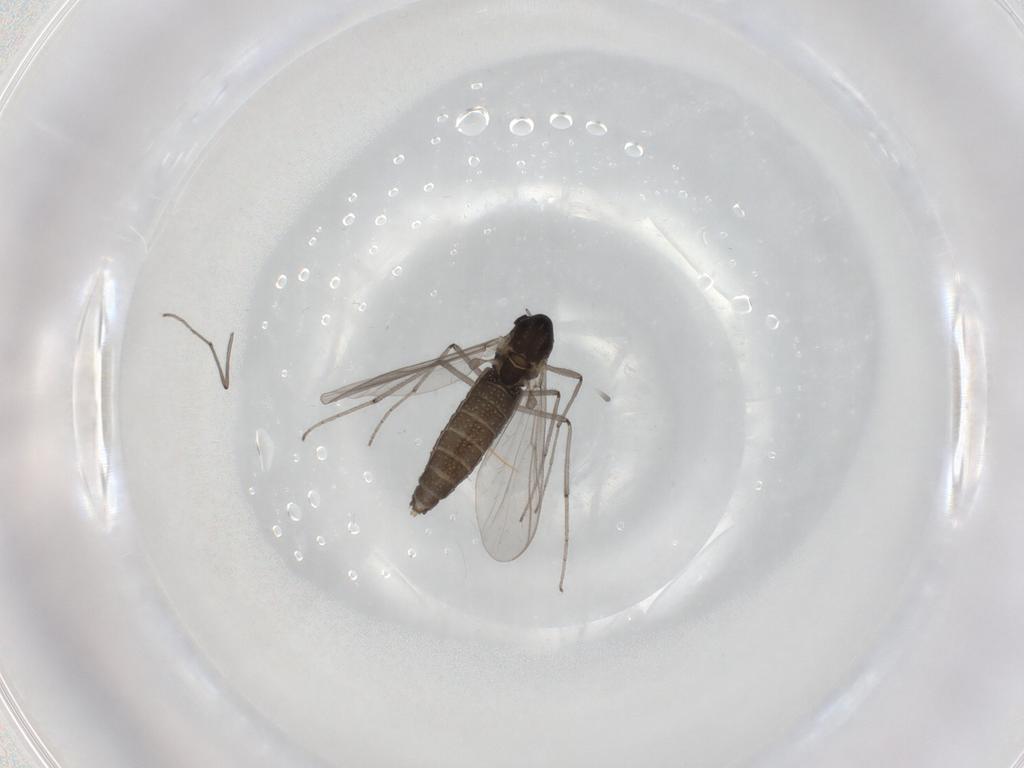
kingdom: Animalia
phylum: Arthropoda
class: Insecta
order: Diptera
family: Chironomidae
